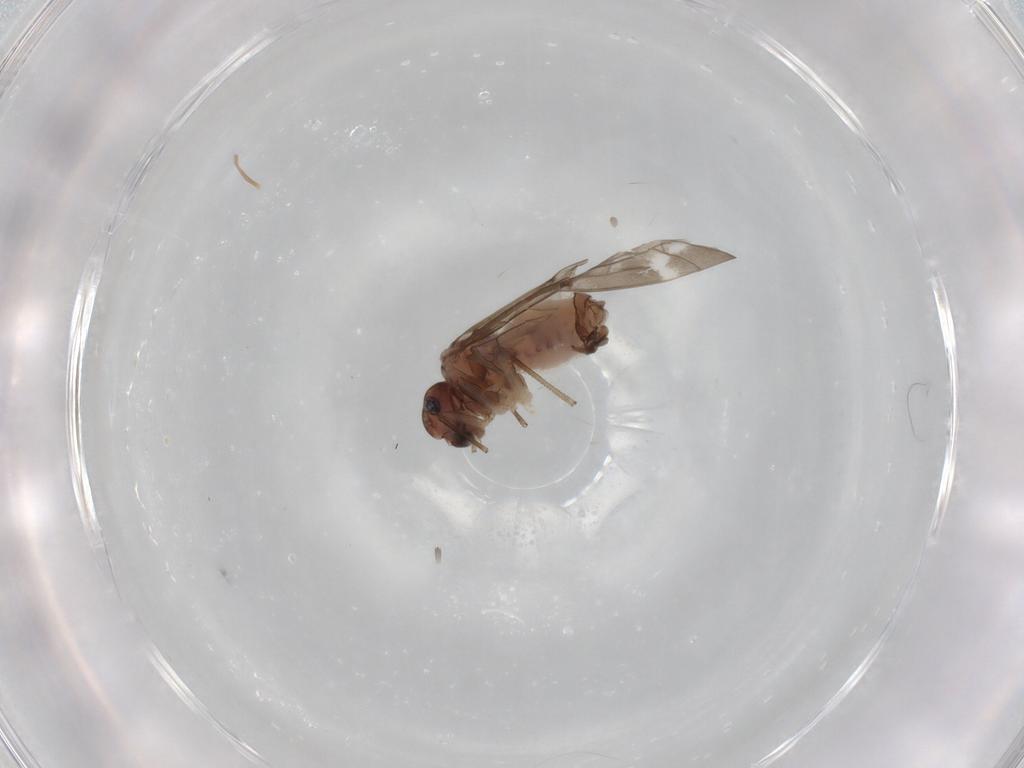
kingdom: Animalia
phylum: Arthropoda
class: Insecta
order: Psocodea
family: Peripsocidae
